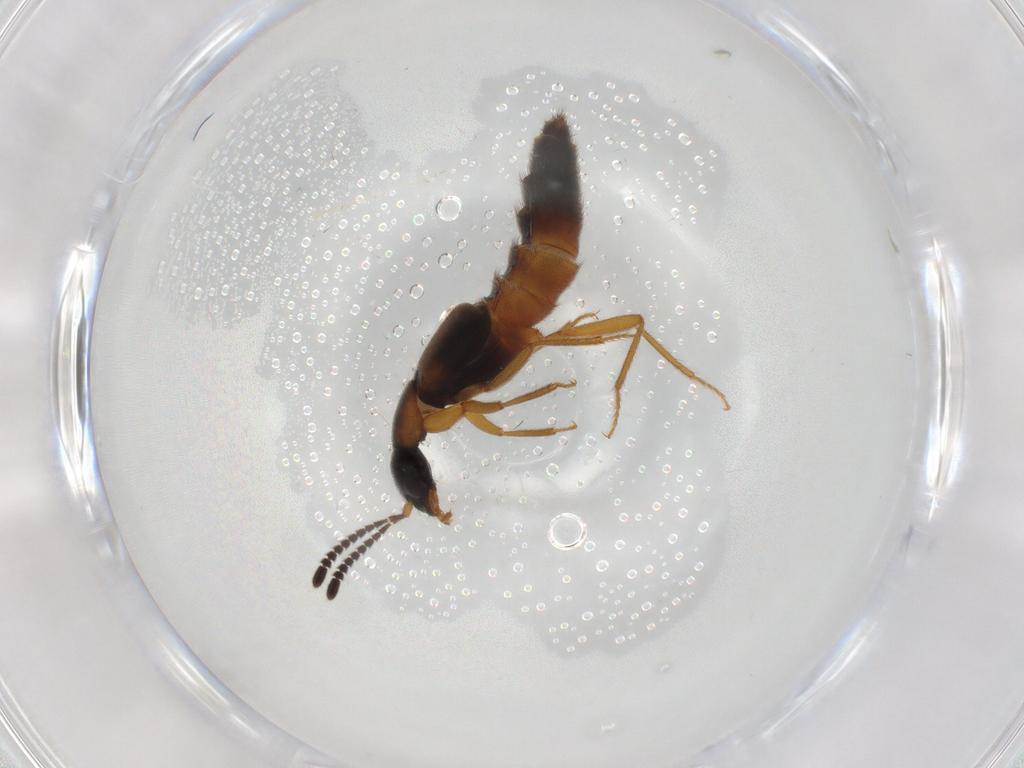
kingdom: Animalia
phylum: Arthropoda
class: Insecta
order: Coleoptera
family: Staphylinidae
